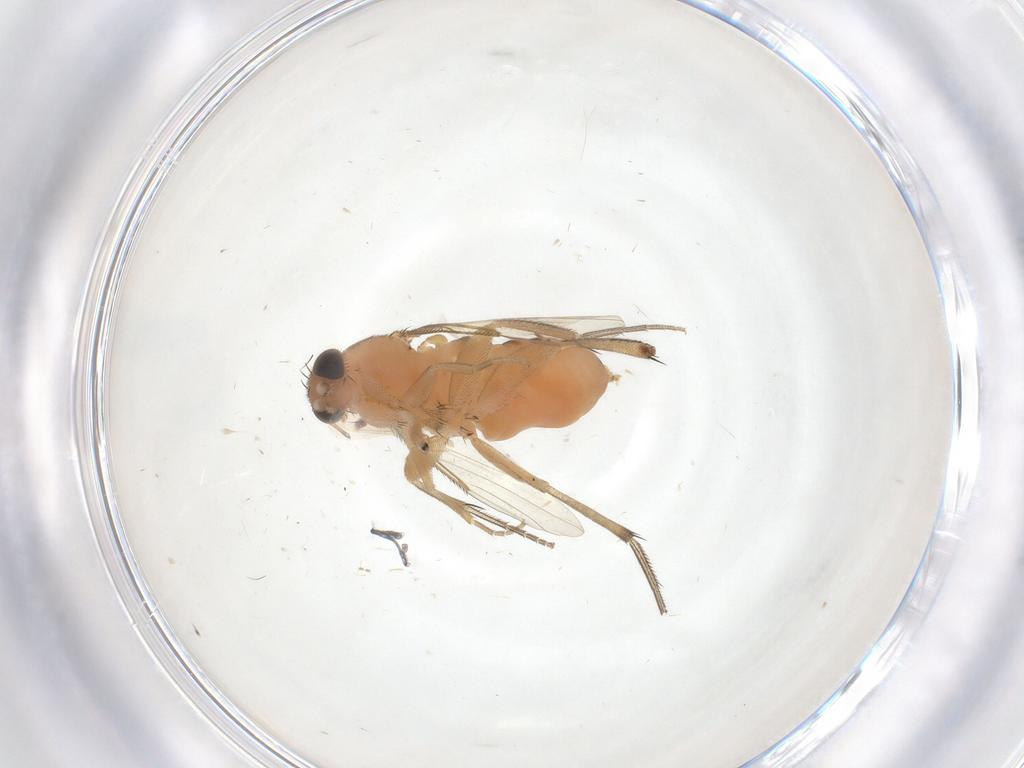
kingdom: Animalia
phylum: Arthropoda
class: Insecta
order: Diptera
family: Phoridae
